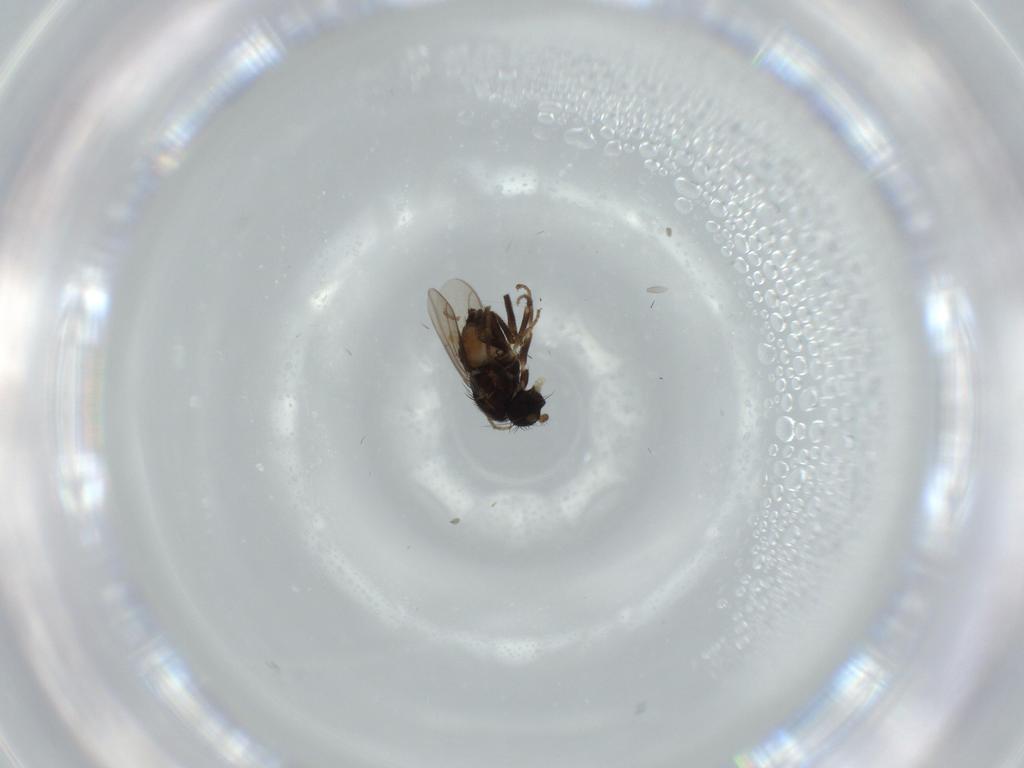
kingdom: Animalia
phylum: Arthropoda
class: Insecta
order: Diptera
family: Sphaeroceridae
